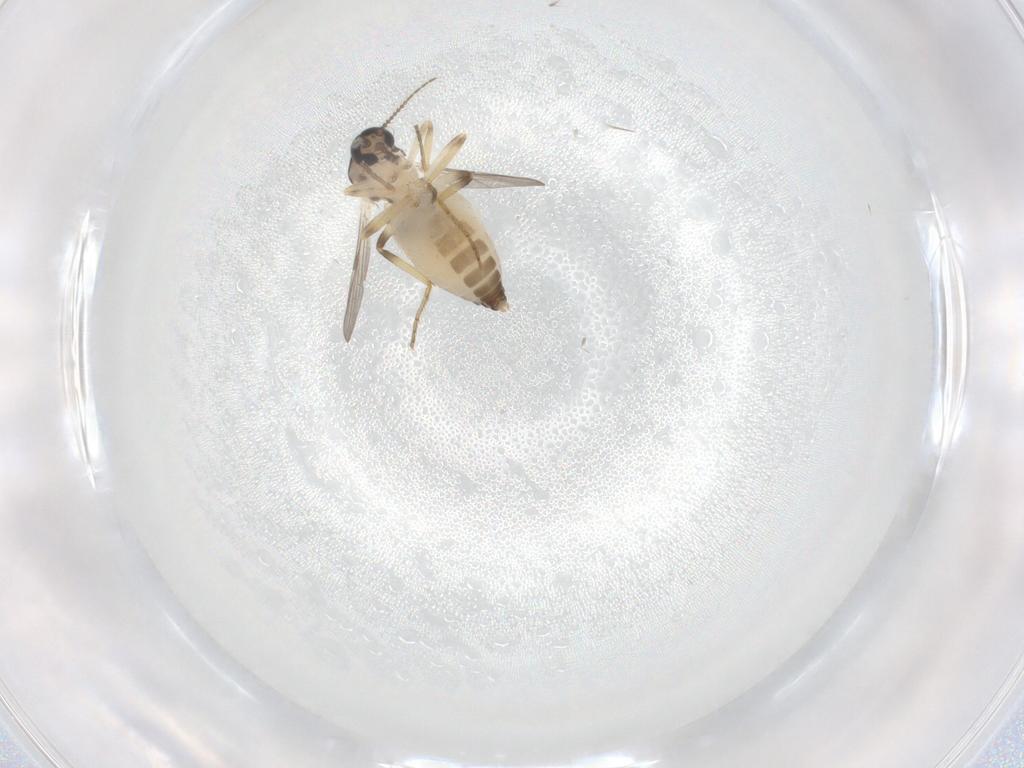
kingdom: Animalia
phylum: Arthropoda
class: Insecta
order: Diptera
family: Ceratopogonidae
